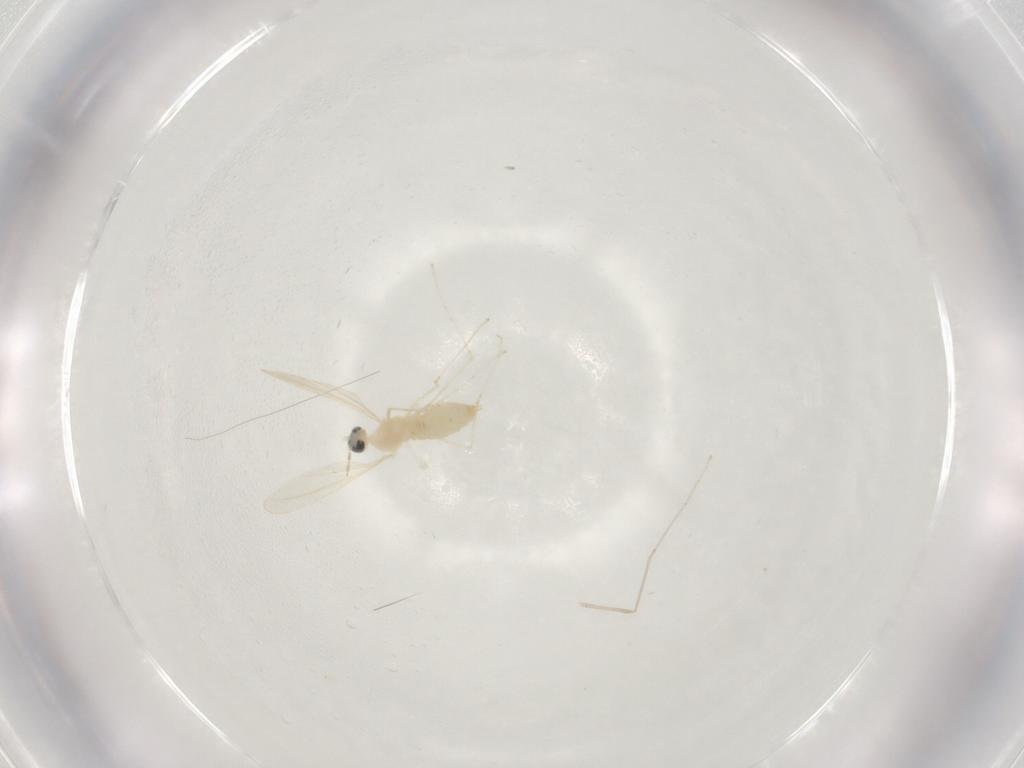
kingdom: Animalia
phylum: Arthropoda
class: Insecta
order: Diptera
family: Cecidomyiidae
